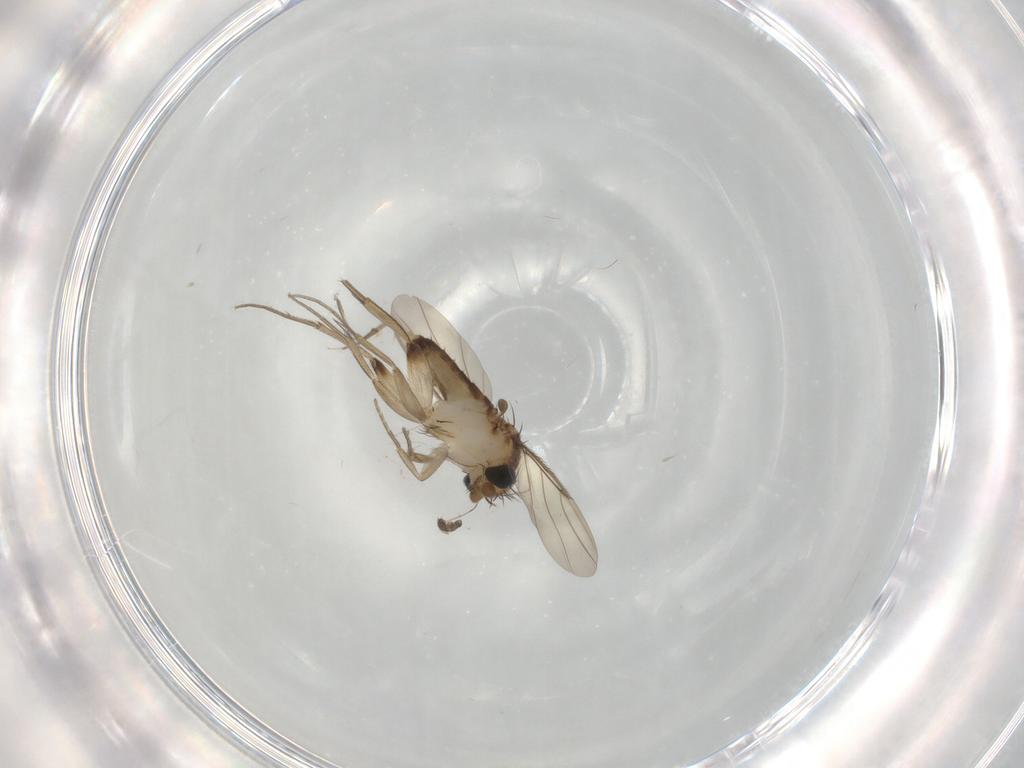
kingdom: Animalia
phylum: Arthropoda
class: Insecta
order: Diptera
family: Phoridae
